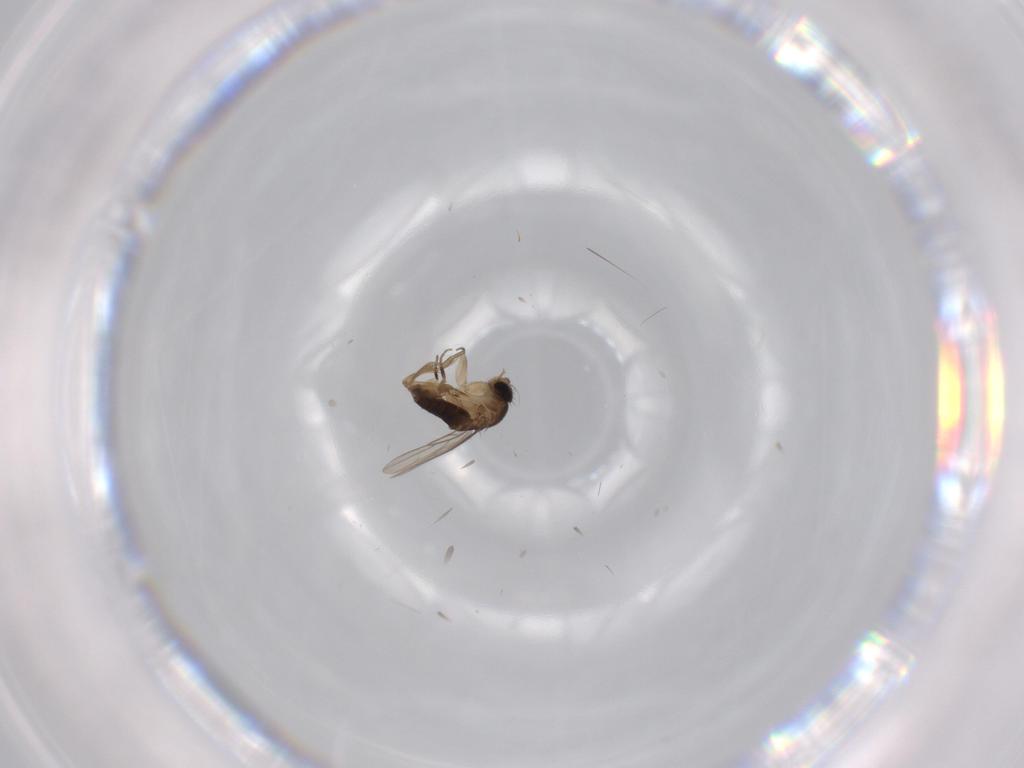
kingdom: Animalia
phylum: Arthropoda
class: Insecta
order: Diptera
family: Phoridae
